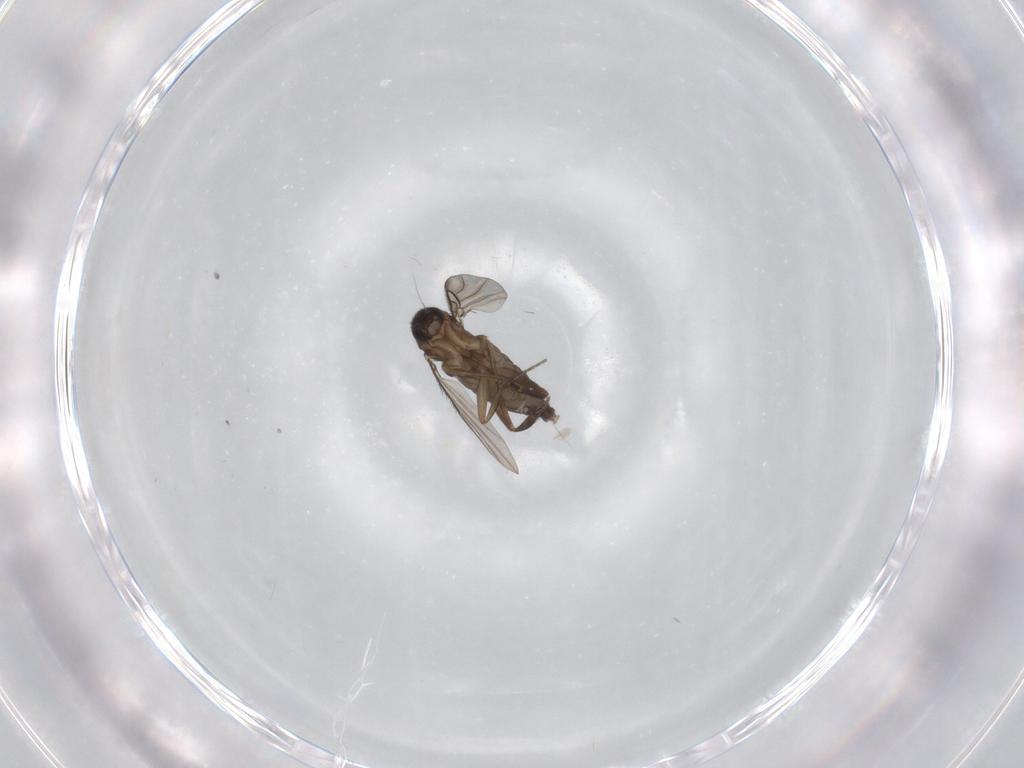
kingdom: Animalia
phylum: Arthropoda
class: Insecta
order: Diptera
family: Phoridae
